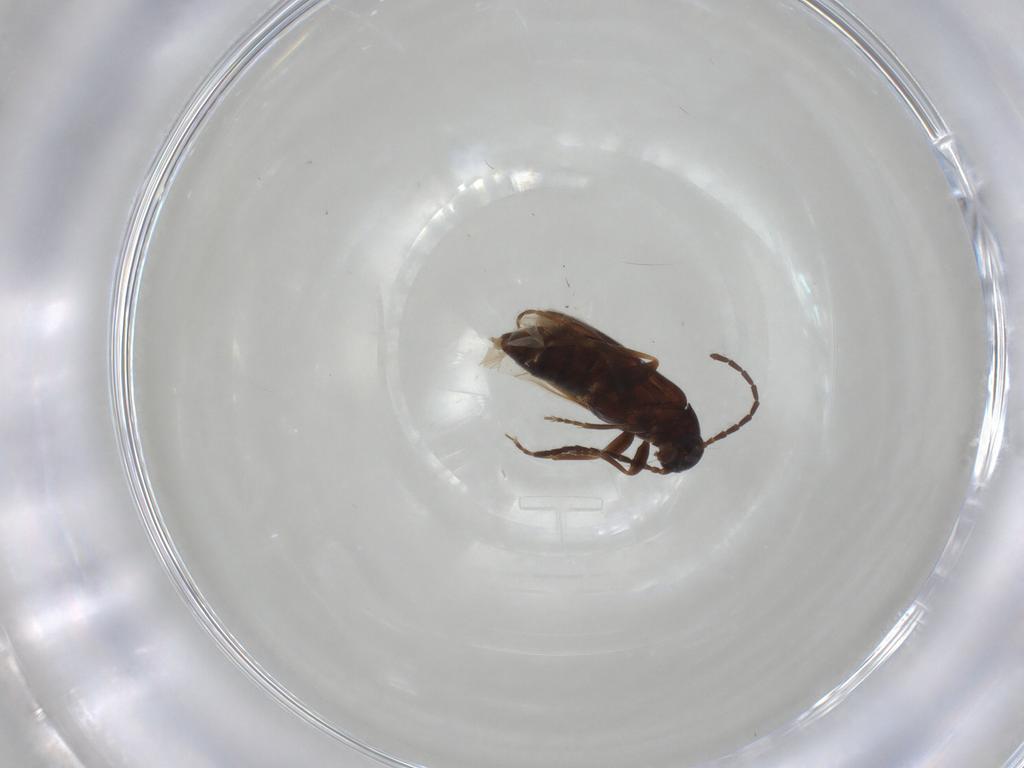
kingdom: Animalia
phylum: Arthropoda
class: Insecta
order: Coleoptera
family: Scraptiidae
